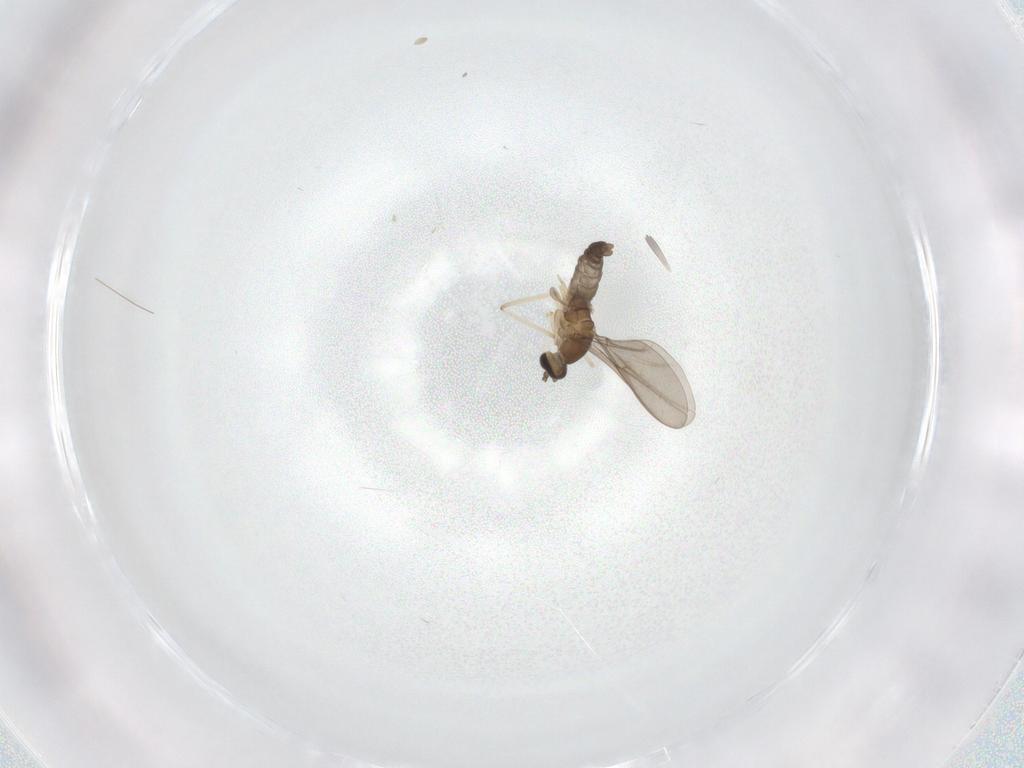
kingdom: Animalia
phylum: Arthropoda
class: Insecta
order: Diptera
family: Cecidomyiidae
